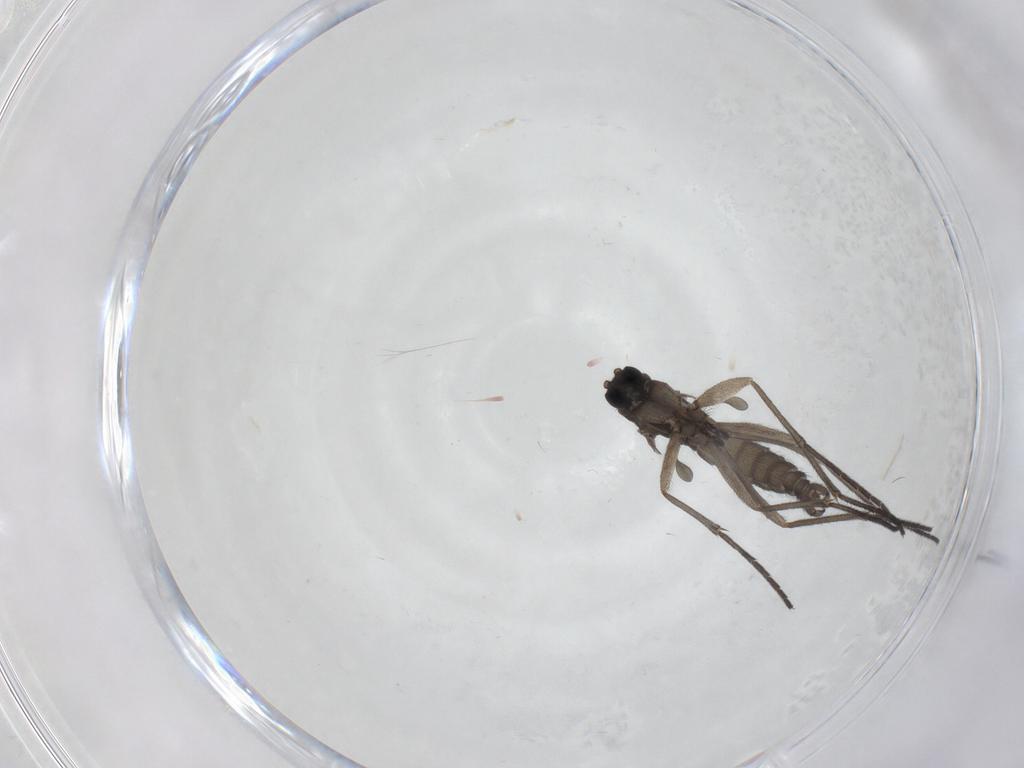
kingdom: Animalia
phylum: Arthropoda
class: Insecta
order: Diptera
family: Sciaridae
